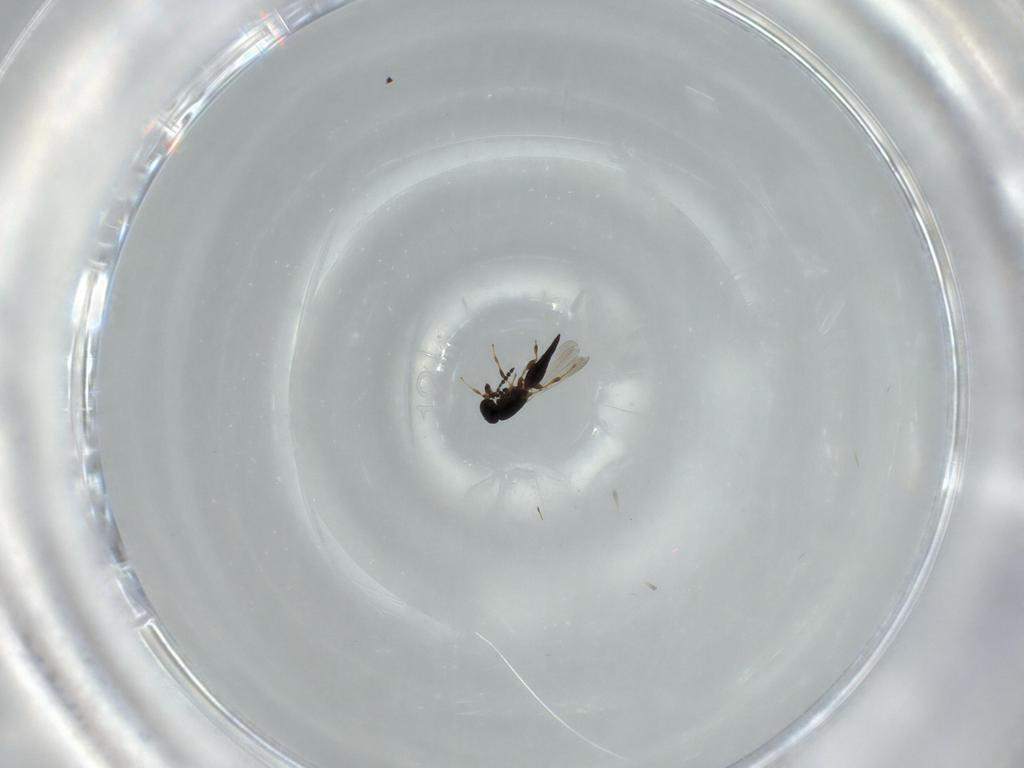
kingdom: Animalia
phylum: Arthropoda
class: Insecta
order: Hymenoptera
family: Platygastridae
